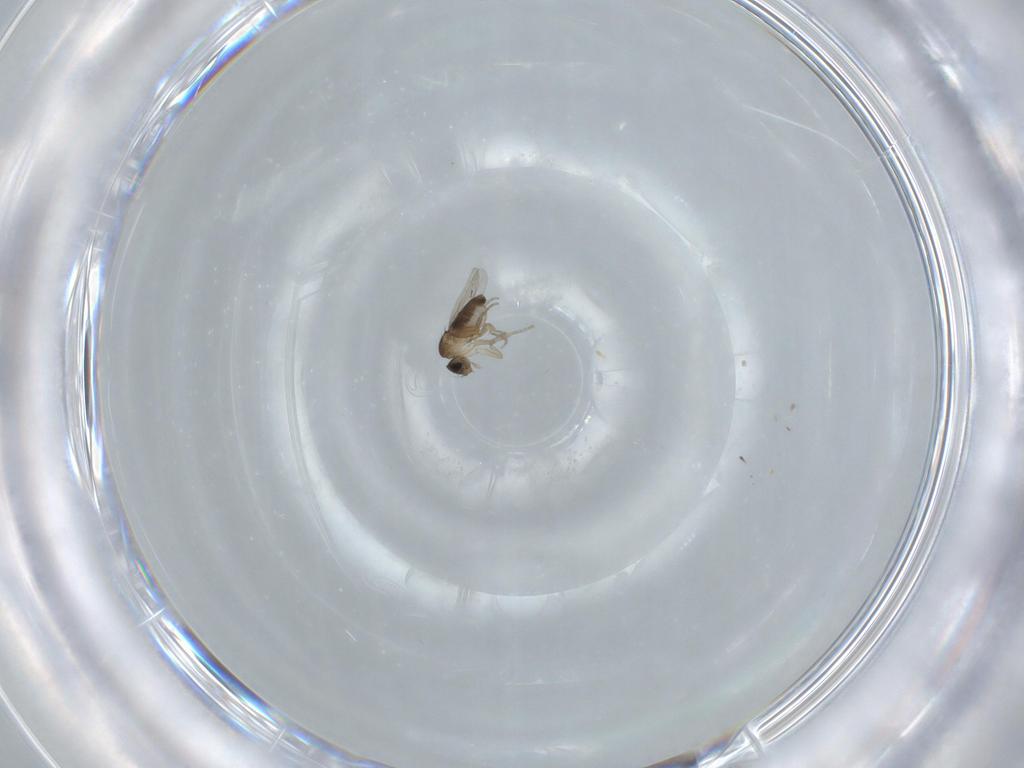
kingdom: Animalia
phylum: Arthropoda
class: Insecta
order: Diptera
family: Phoridae
